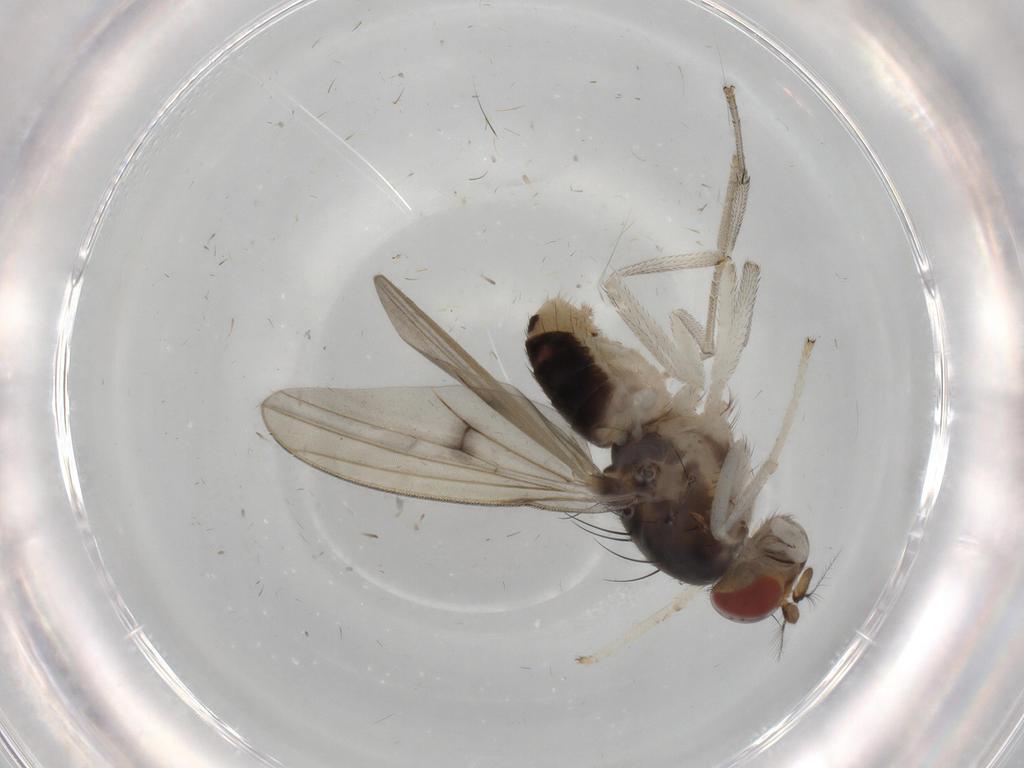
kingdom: Animalia
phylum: Arthropoda
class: Insecta
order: Diptera
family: Lauxaniidae
